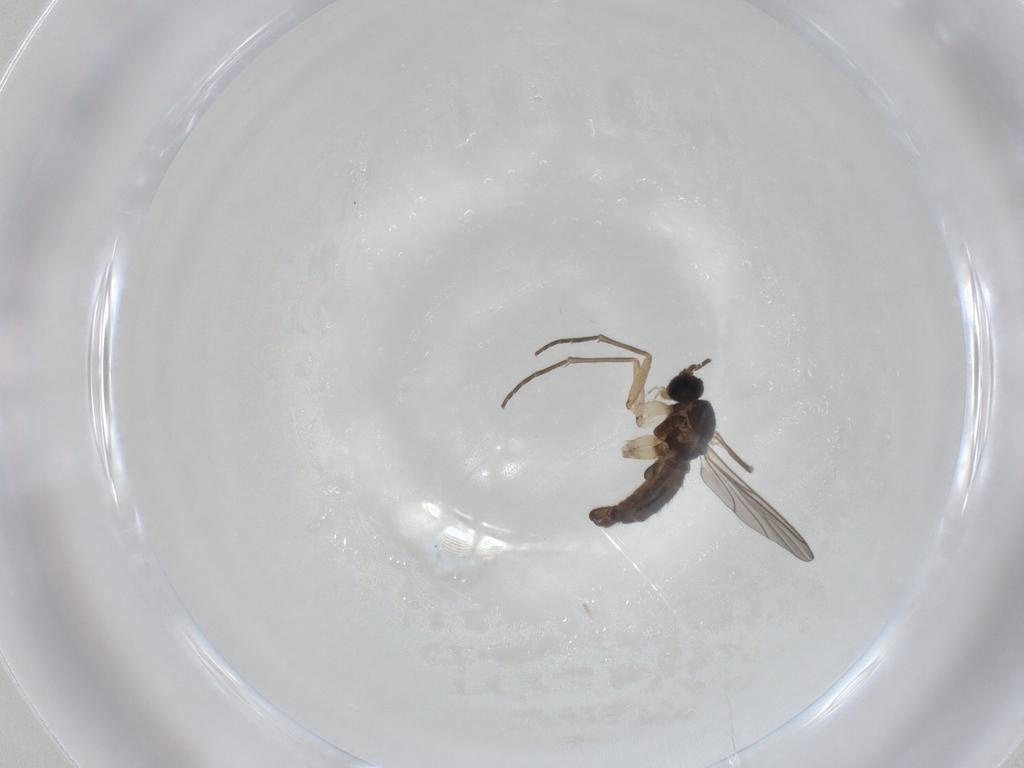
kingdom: Animalia
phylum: Arthropoda
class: Insecta
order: Diptera
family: Sciaridae
